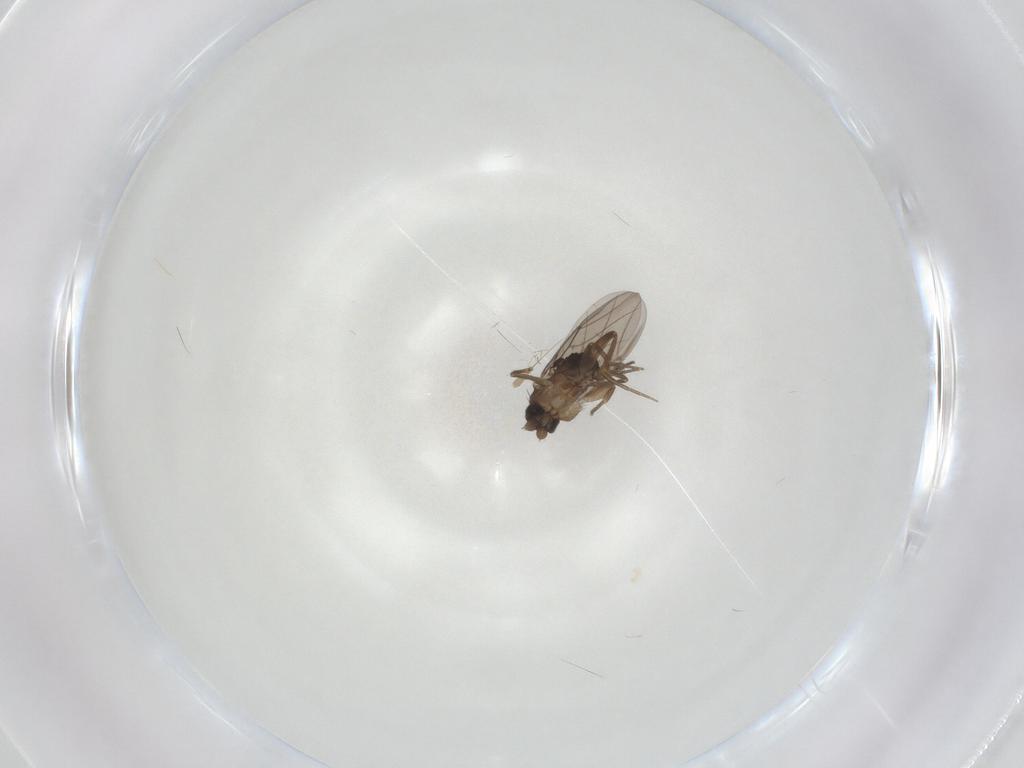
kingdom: Animalia
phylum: Arthropoda
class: Insecta
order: Diptera
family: Phoridae
